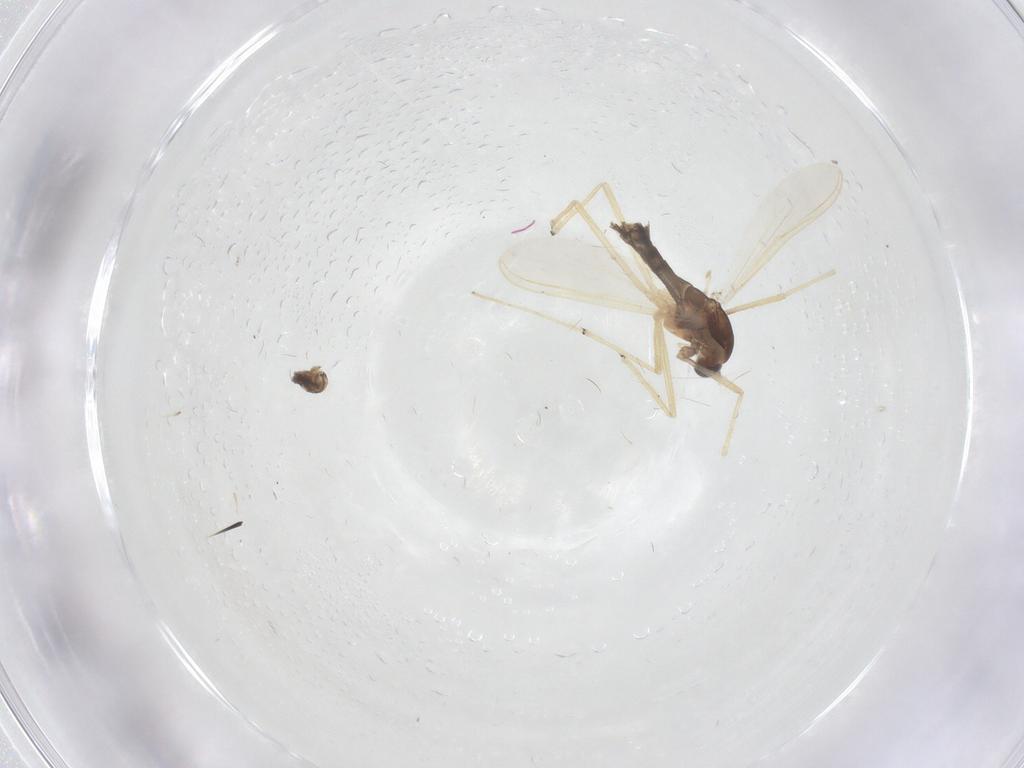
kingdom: Animalia
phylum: Arthropoda
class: Insecta
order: Diptera
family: Chironomidae
